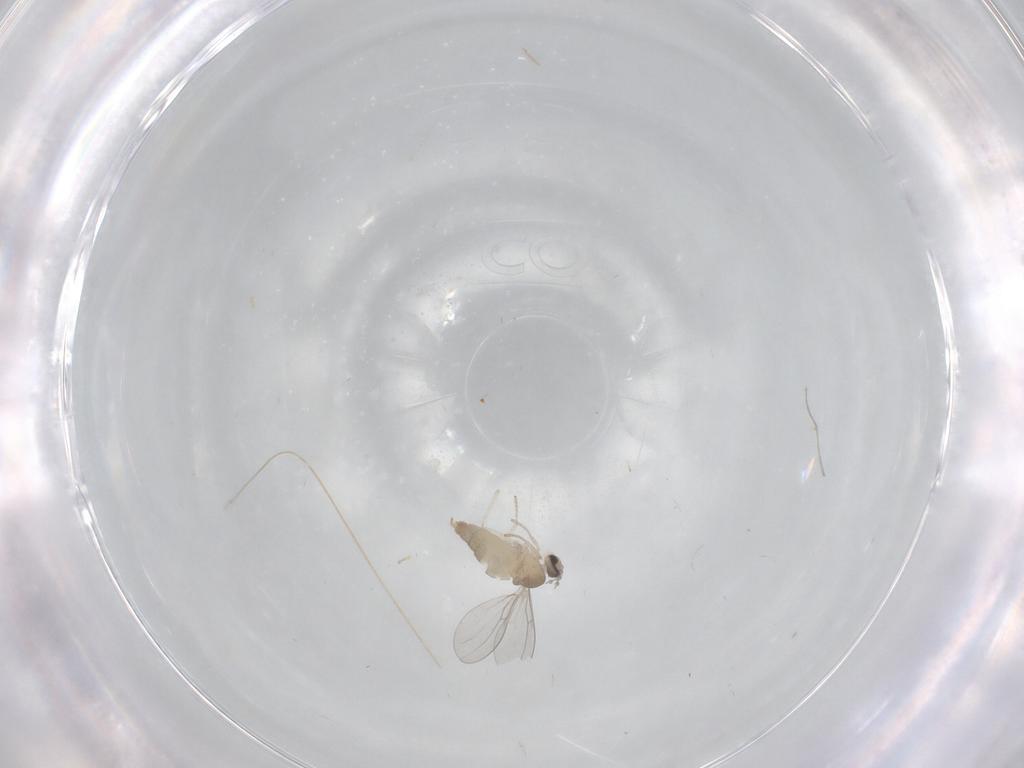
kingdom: Animalia
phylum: Arthropoda
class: Insecta
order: Diptera
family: Cecidomyiidae
